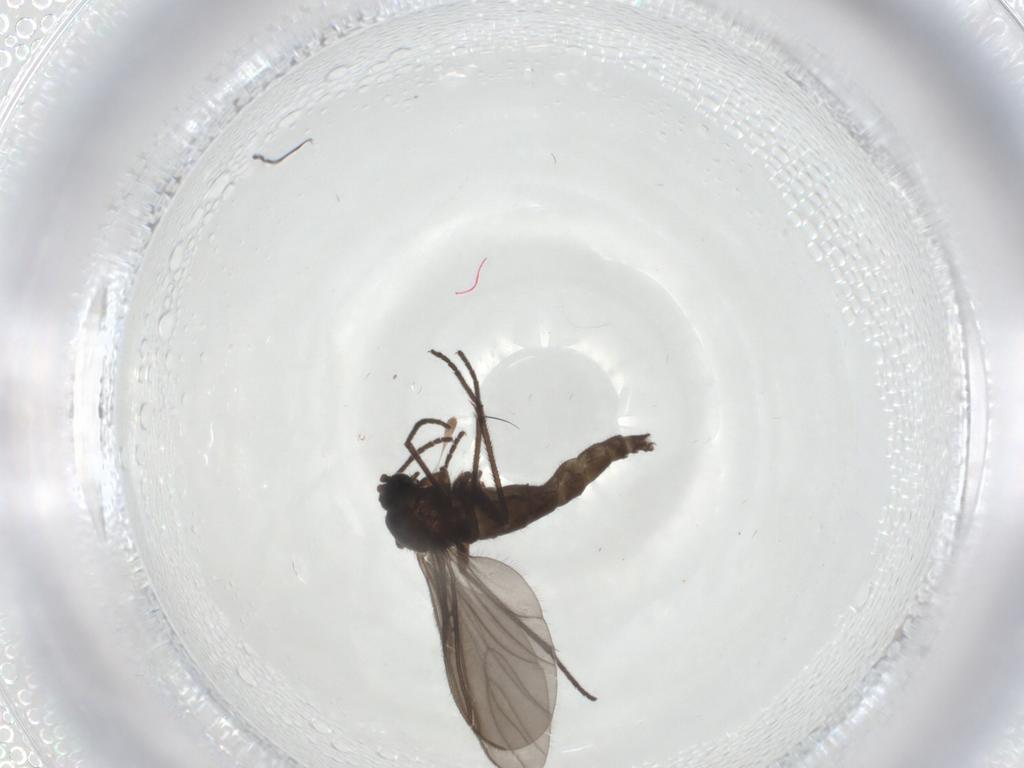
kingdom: Animalia
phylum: Arthropoda
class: Insecta
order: Diptera
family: Sciaridae
